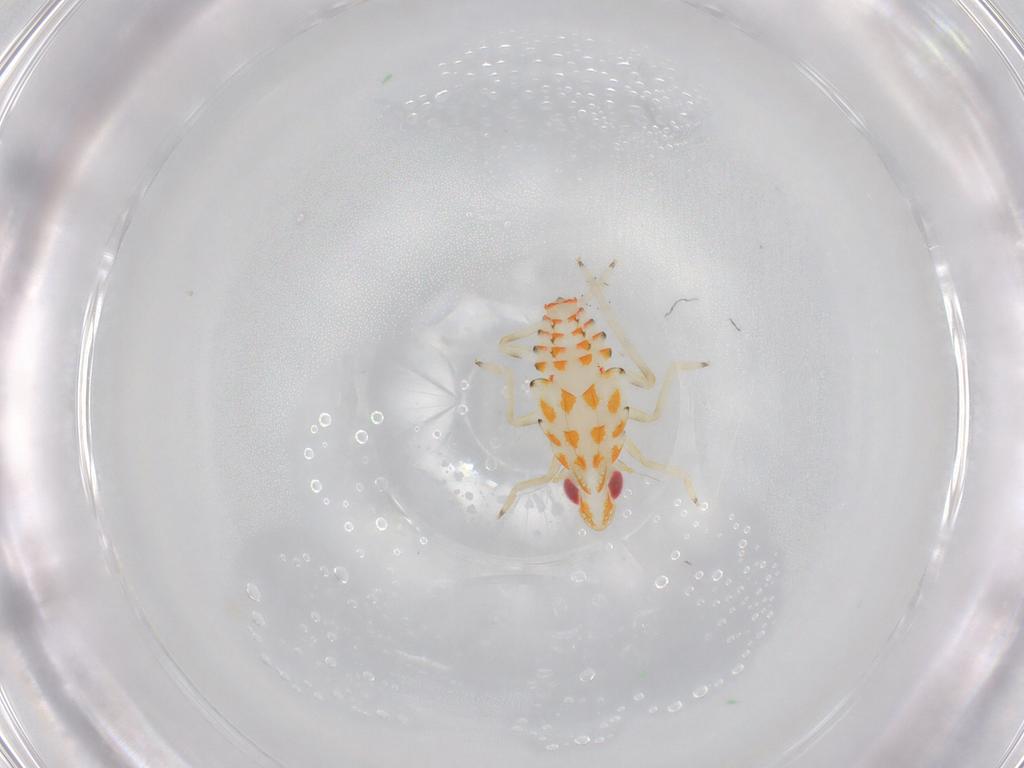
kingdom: Animalia
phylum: Arthropoda
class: Insecta
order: Hemiptera
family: Tropiduchidae
